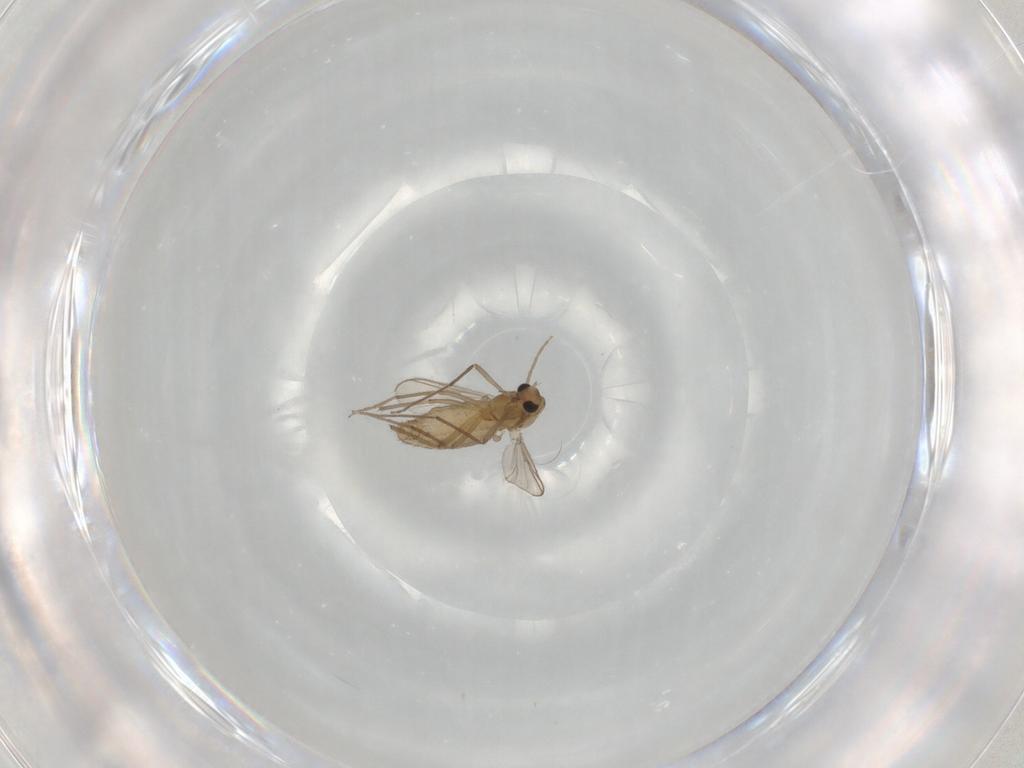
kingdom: Animalia
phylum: Arthropoda
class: Insecta
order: Diptera
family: Chironomidae
